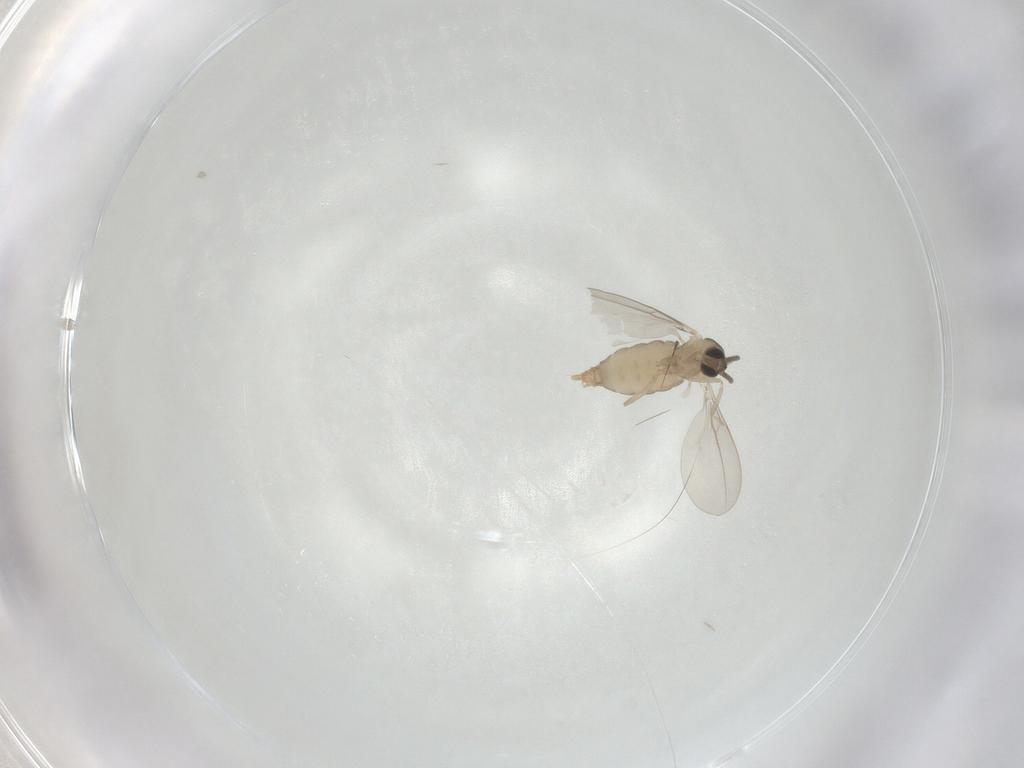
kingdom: Animalia
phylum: Arthropoda
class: Insecta
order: Diptera
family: Cecidomyiidae
